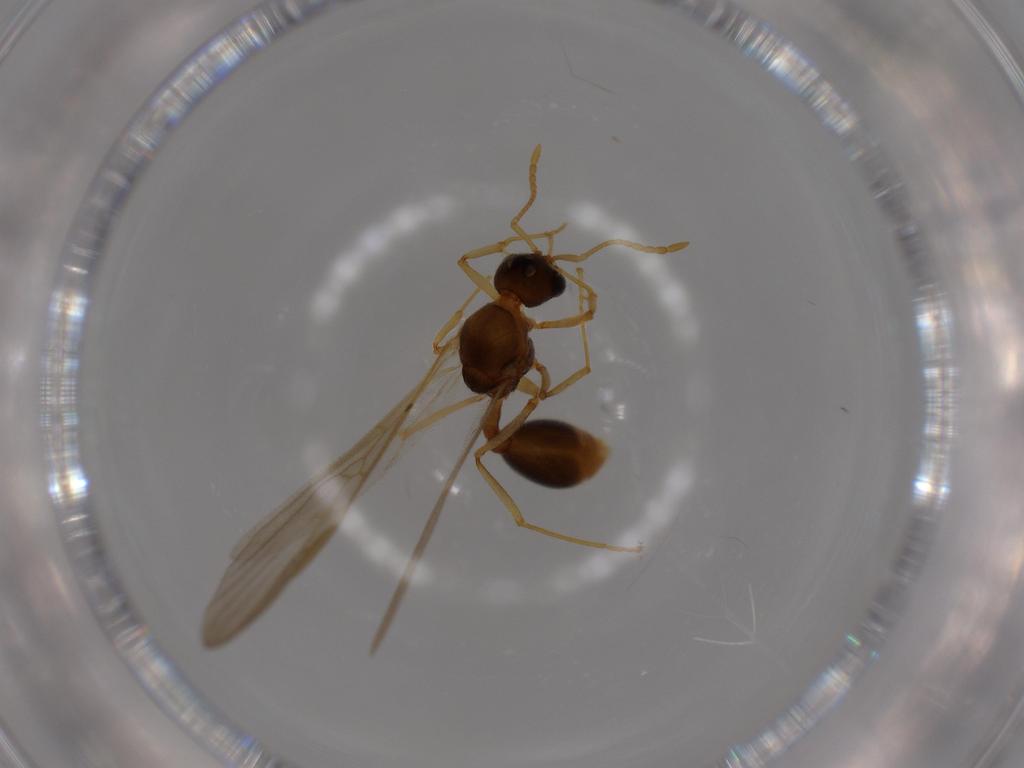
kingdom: Animalia
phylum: Arthropoda
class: Insecta
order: Hymenoptera
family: Formicidae
